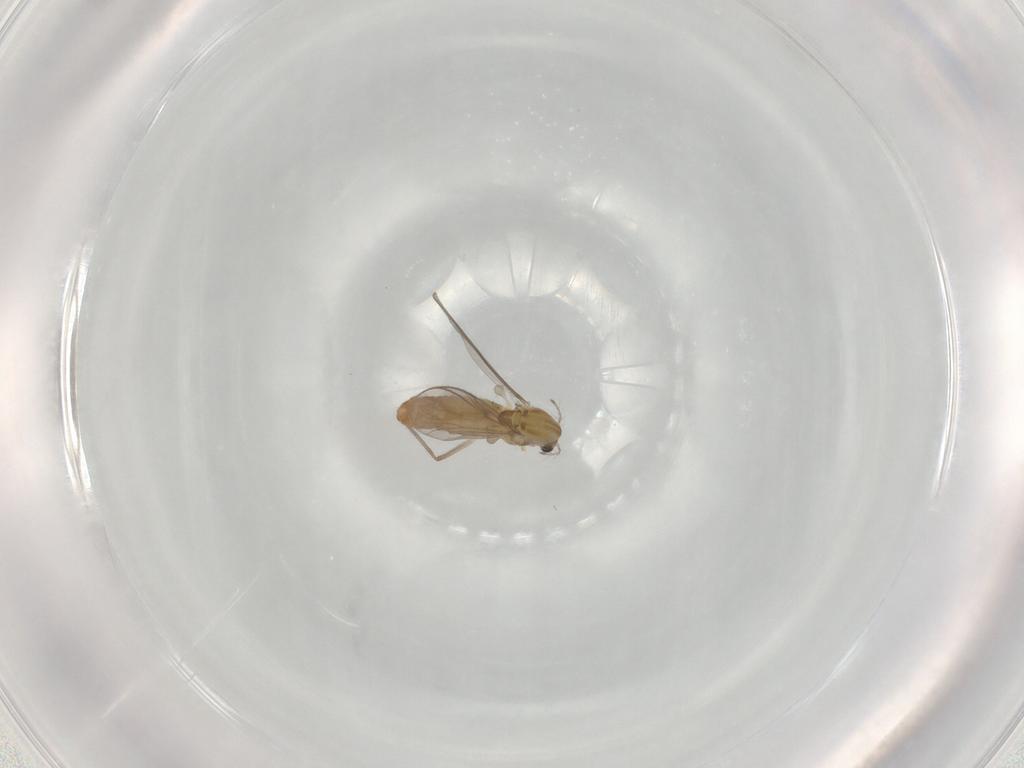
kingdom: Animalia
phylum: Arthropoda
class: Insecta
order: Diptera
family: Chironomidae
